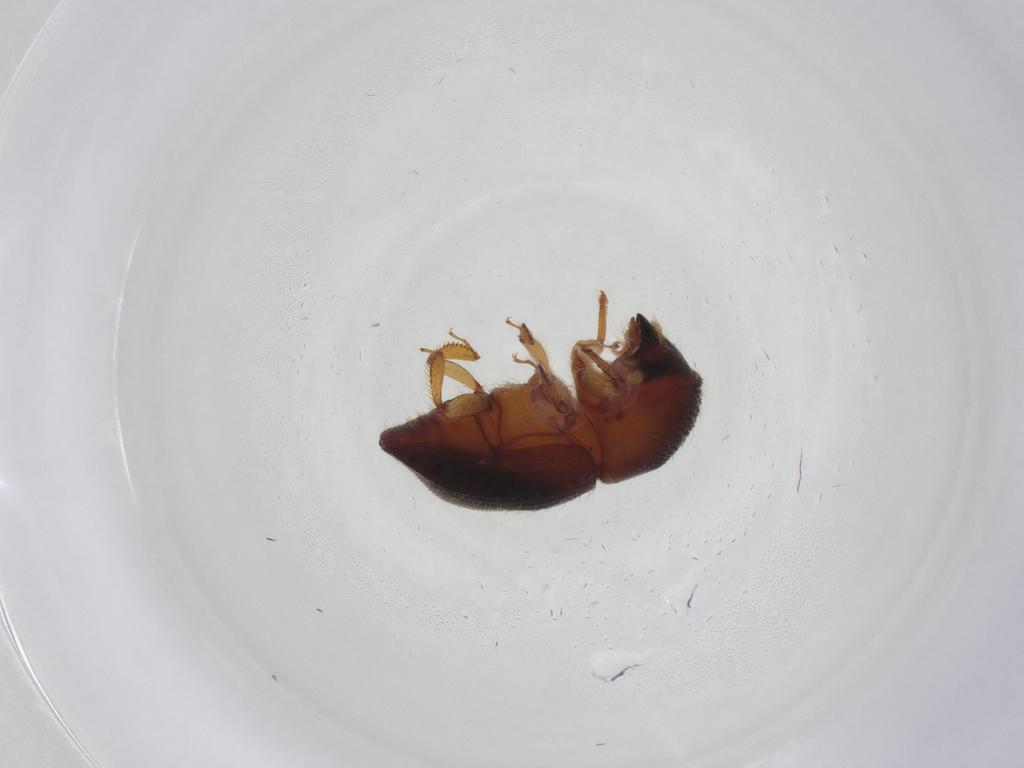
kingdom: Animalia
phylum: Arthropoda
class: Insecta
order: Coleoptera
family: Curculionidae
